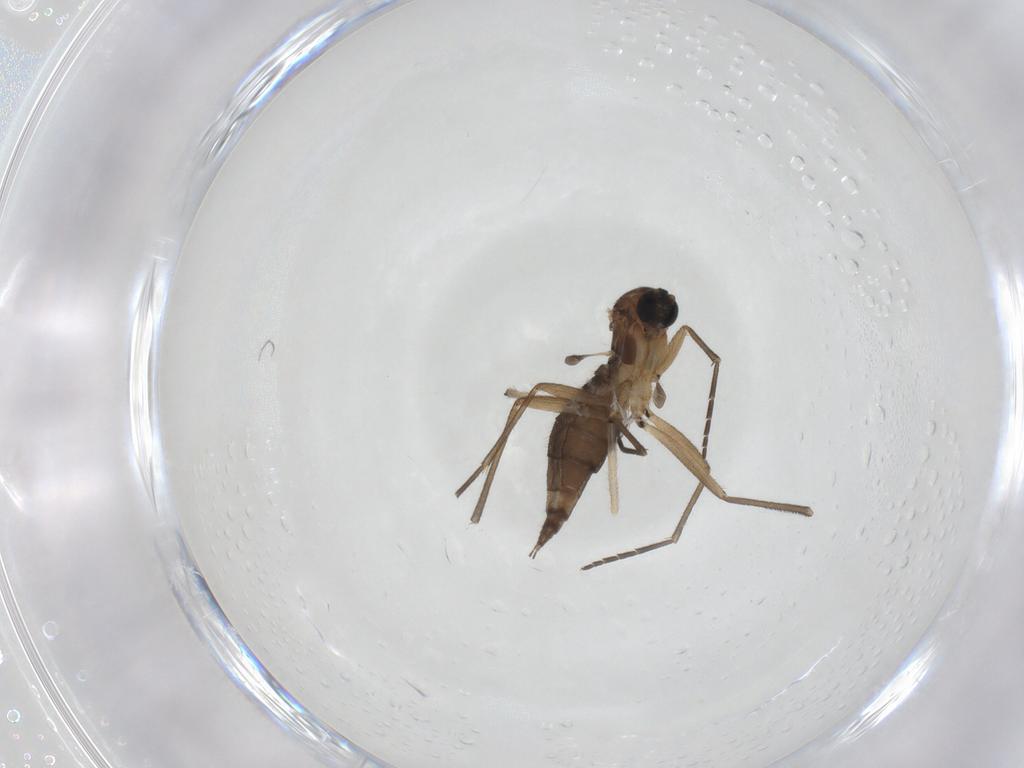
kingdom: Animalia
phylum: Arthropoda
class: Insecta
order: Diptera
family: Sciaridae
